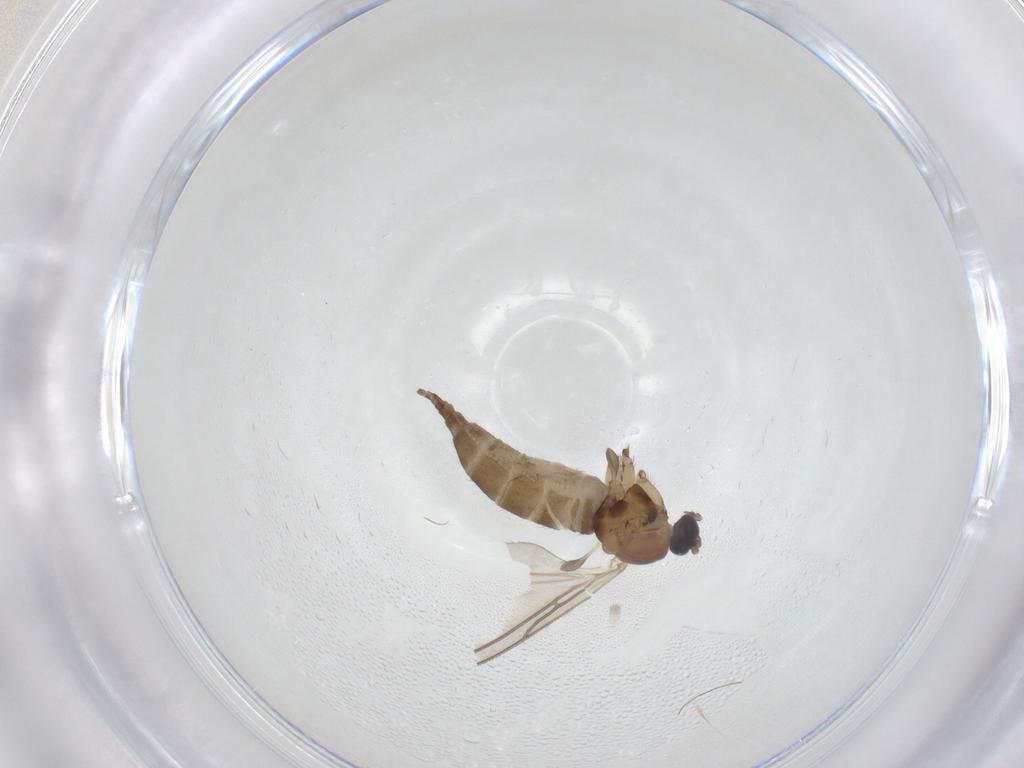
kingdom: Animalia
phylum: Arthropoda
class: Insecta
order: Diptera
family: Sciaridae
